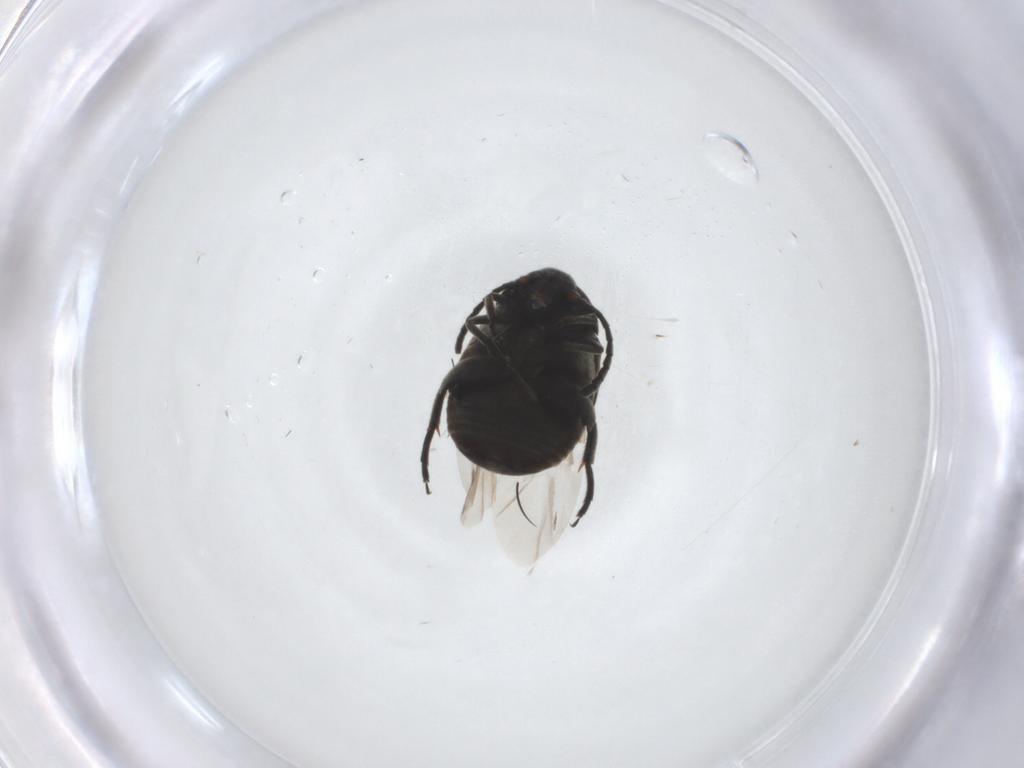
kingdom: Animalia
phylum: Arthropoda
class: Insecta
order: Coleoptera
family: Chrysomelidae
